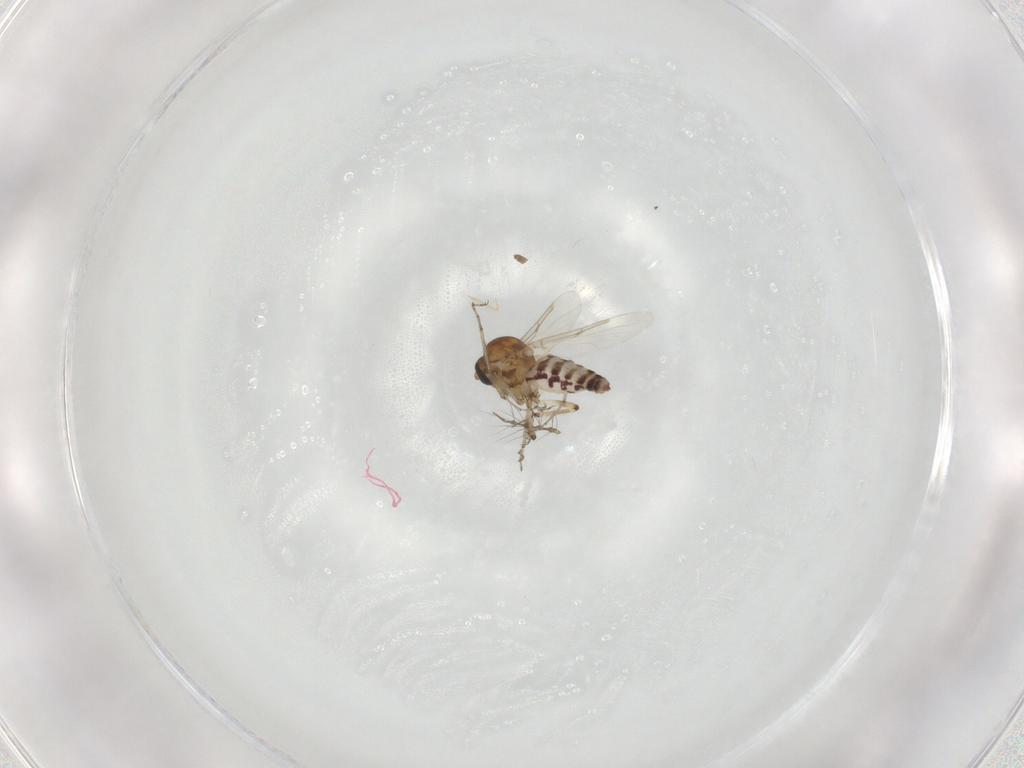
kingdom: Animalia
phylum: Arthropoda
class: Insecta
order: Diptera
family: Ceratopogonidae
